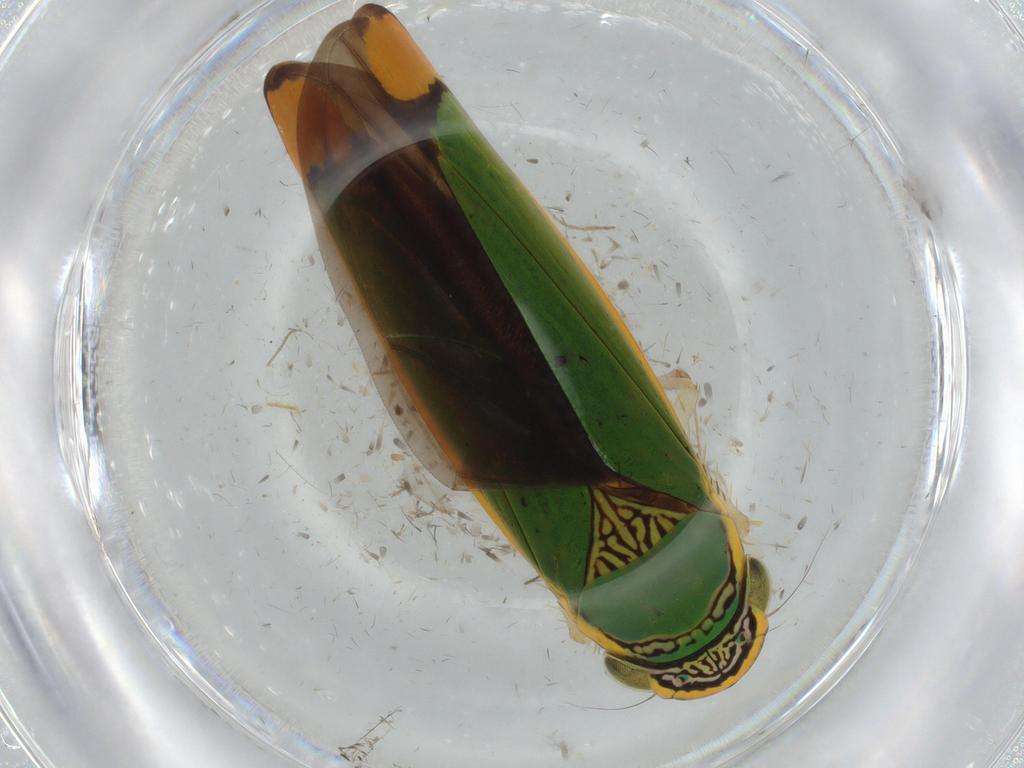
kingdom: Animalia
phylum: Arthropoda
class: Insecta
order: Hemiptera
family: Cicadellidae
